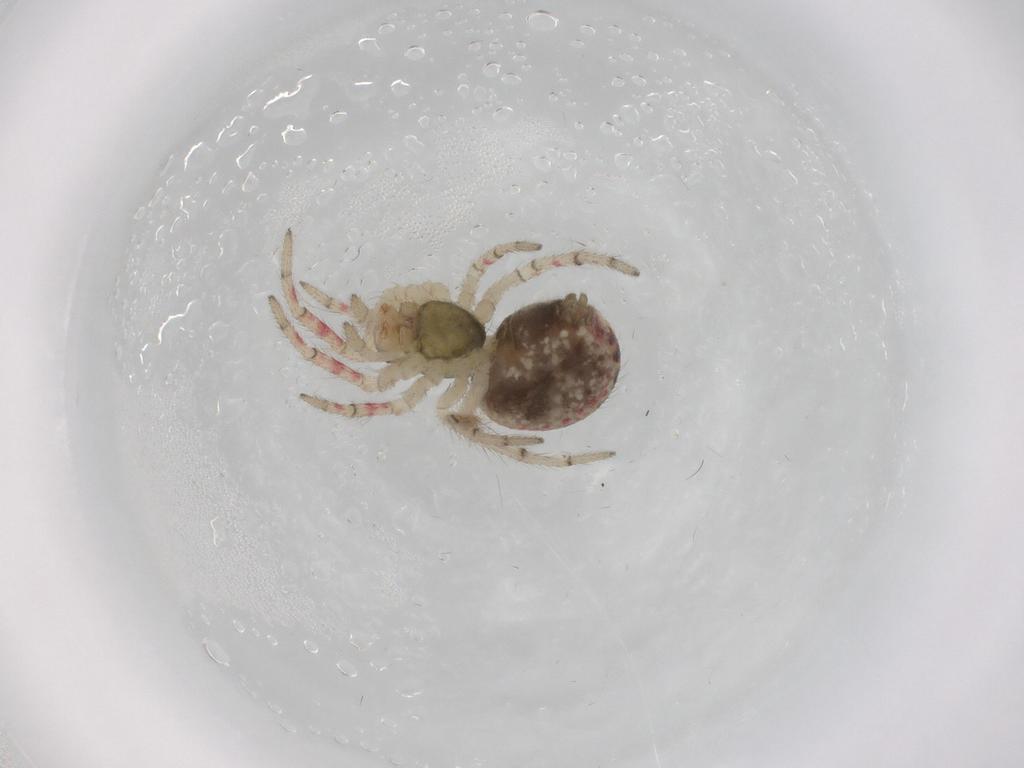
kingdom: Animalia
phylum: Arthropoda
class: Arachnida
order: Araneae
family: Theridiidae
